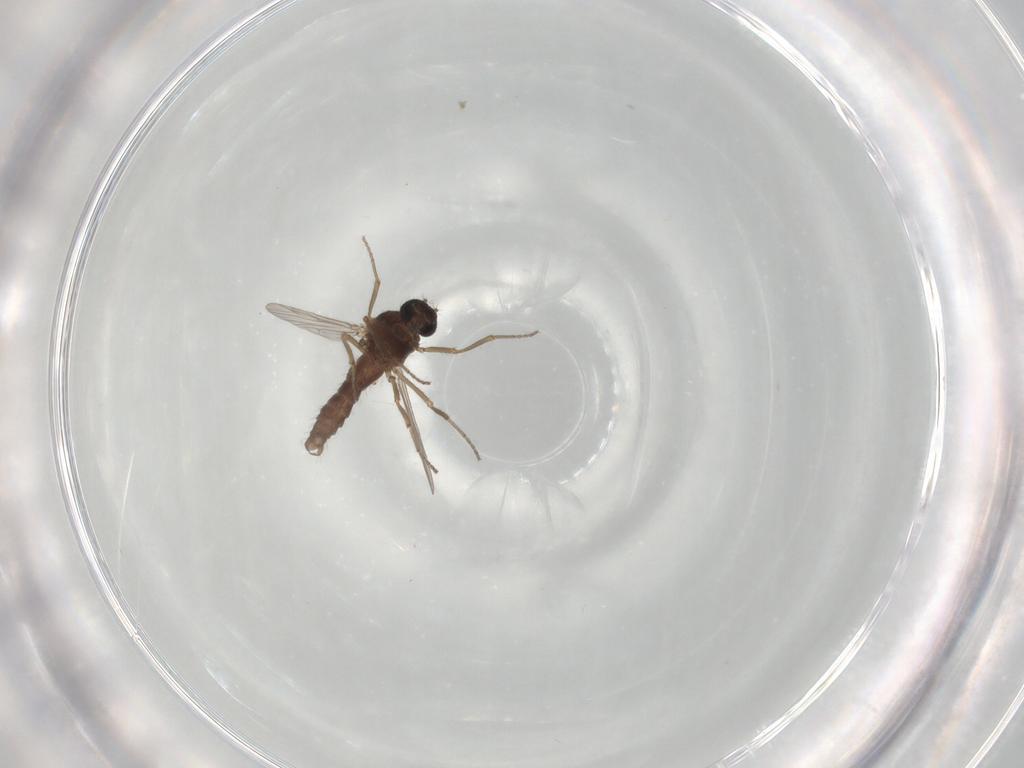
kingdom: Animalia
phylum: Arthropoda
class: Insecta
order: Diptera
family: Ceratopogonidae
